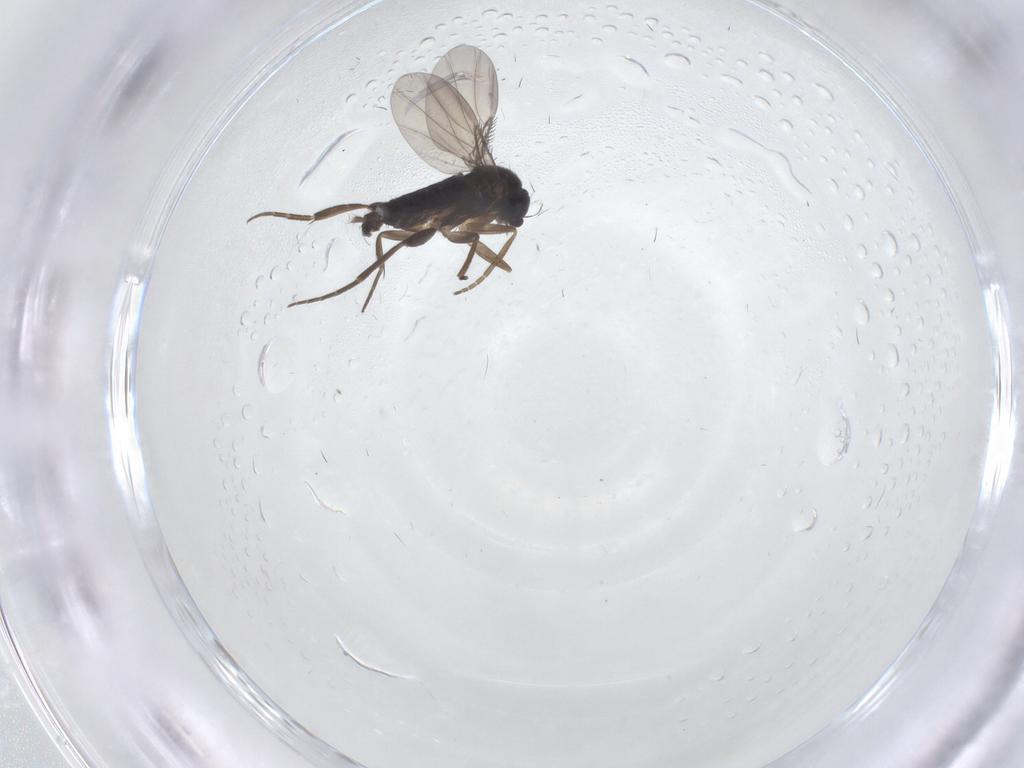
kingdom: Animalia
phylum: Arthropoda
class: Insecta
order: Diptera
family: Phoridae
